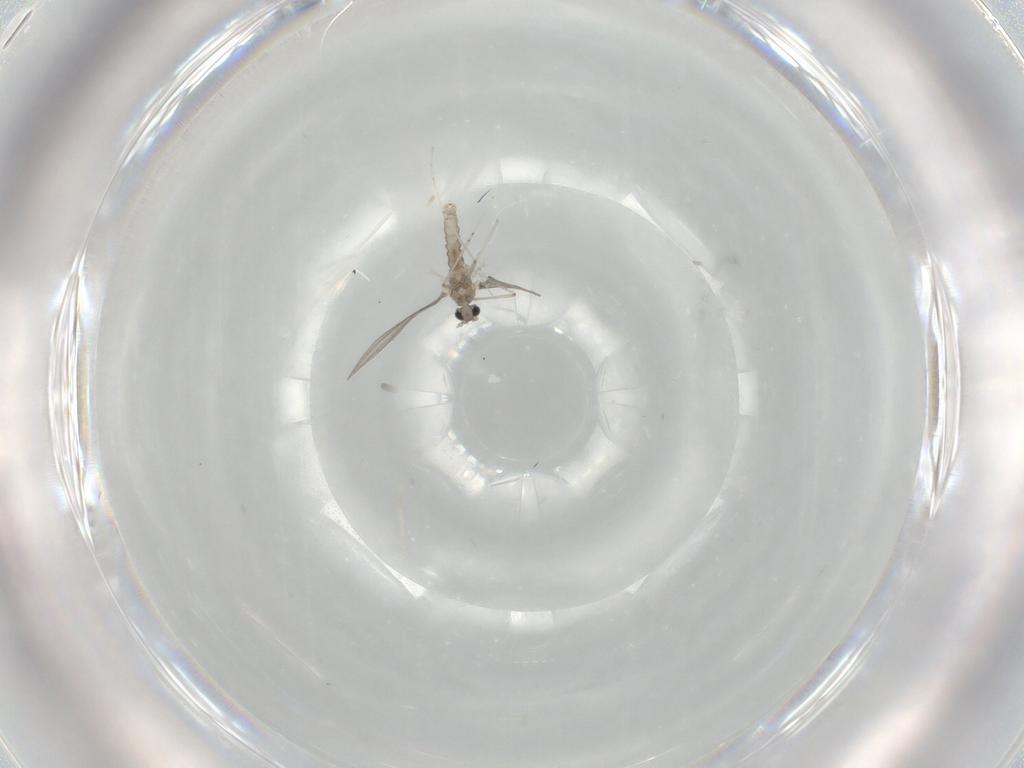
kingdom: Animalia
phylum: Arthropoda
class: Insecta
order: Diptera
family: Cecidomyiidae
